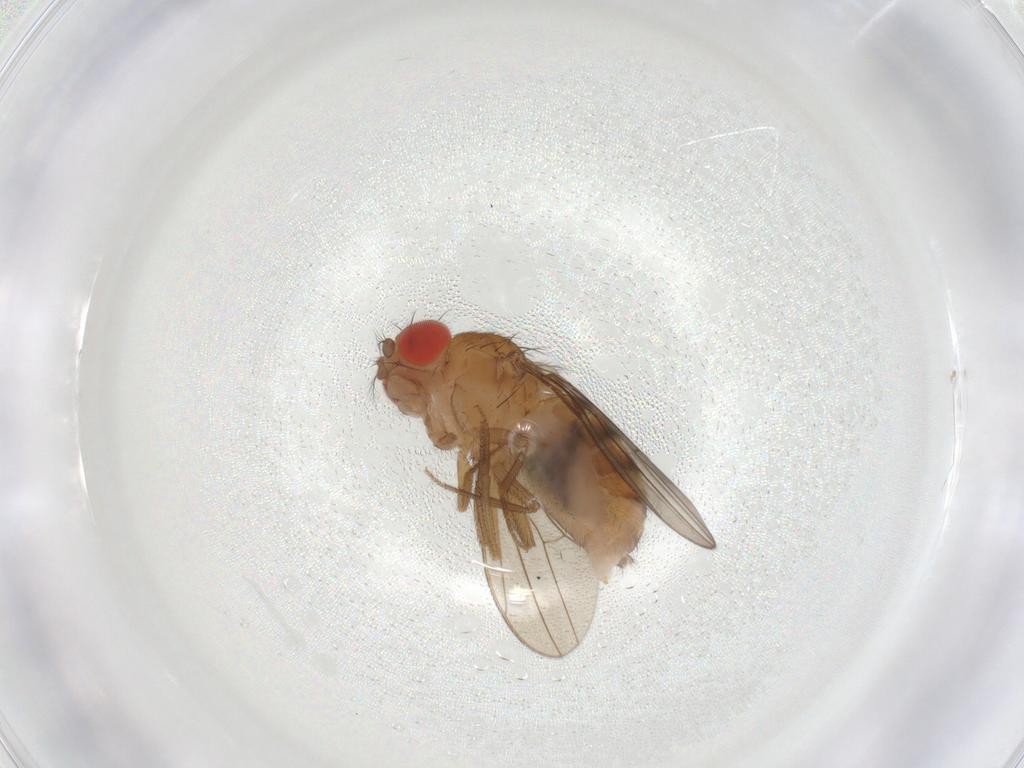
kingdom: Animalia
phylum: Arthropoda
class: Insecta
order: Diptera
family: Drosophilidae
